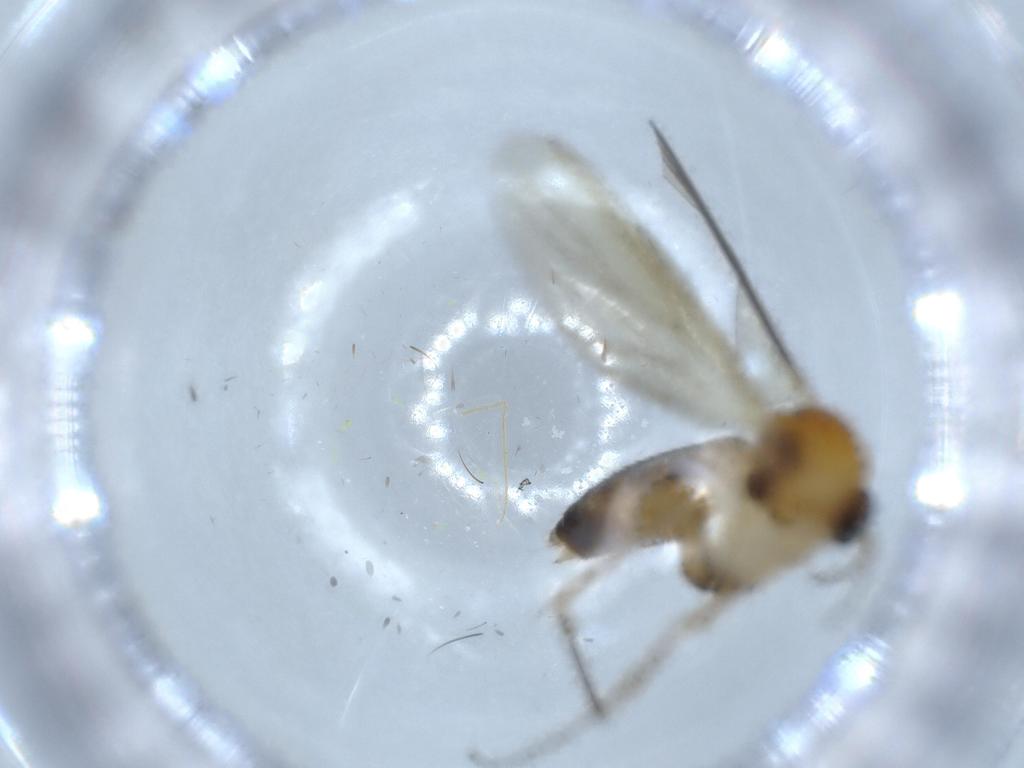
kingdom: Animalia
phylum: Arthropoda
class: Insecta
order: Diptera
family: Mycetophilidae
